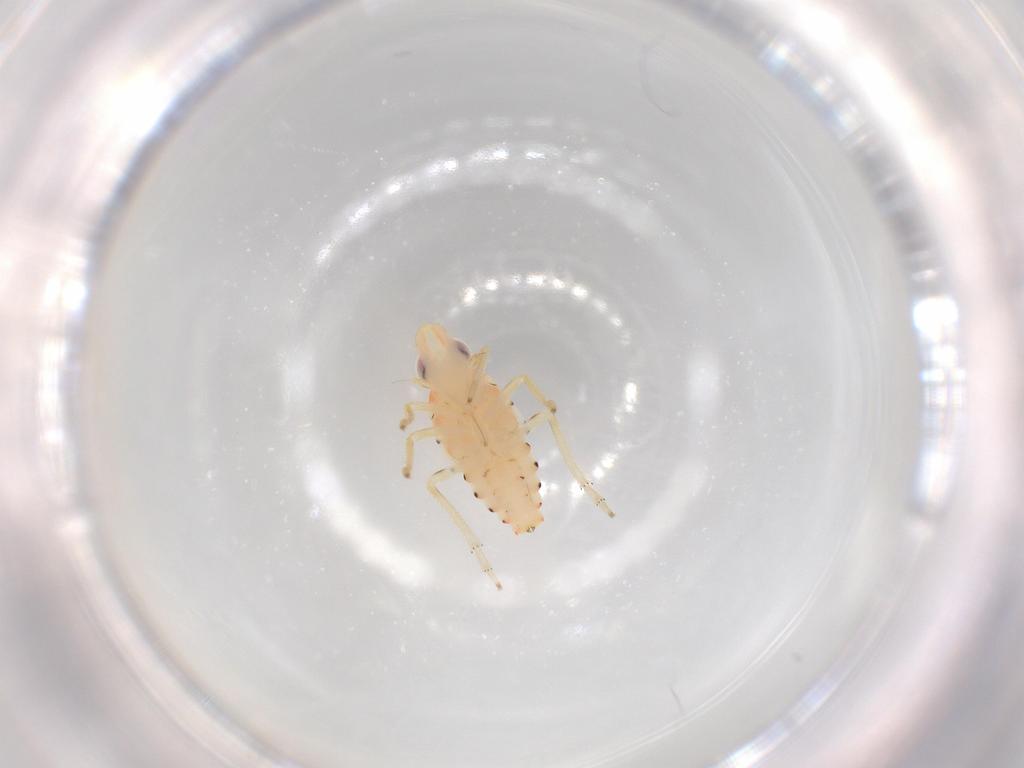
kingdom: Animalia
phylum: Arthropoda
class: Insecta
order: Hemiptera
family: Tropiduchidae
